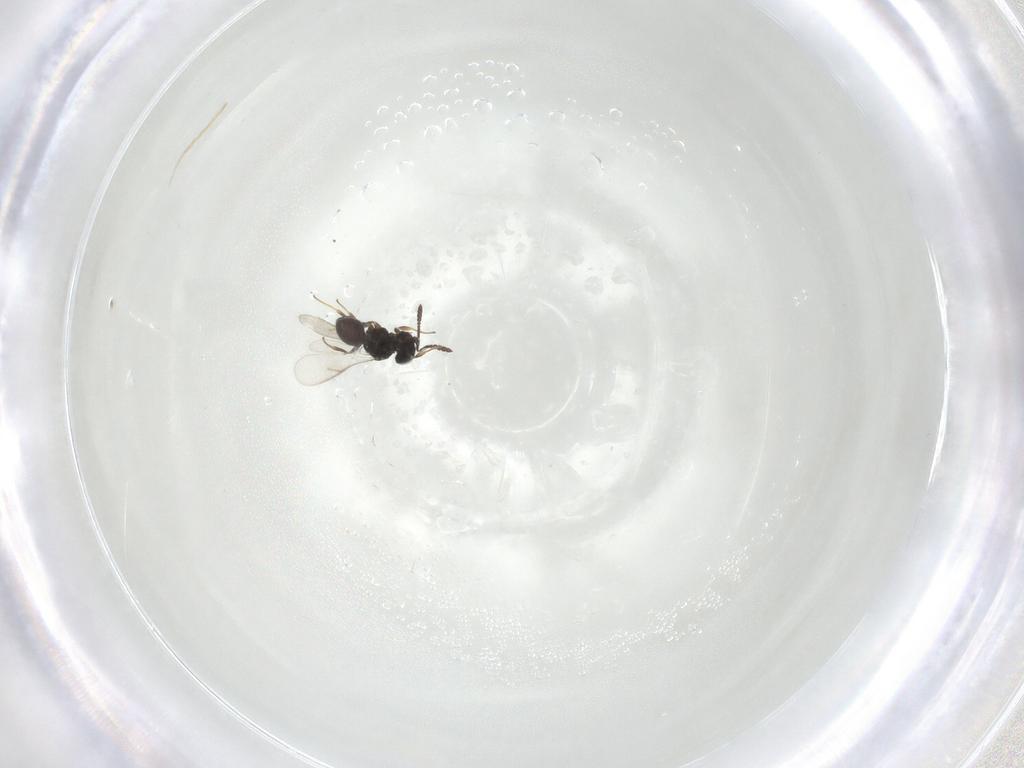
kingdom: Animalia
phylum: Arthropoda
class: Insecta
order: Hymenoptera
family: Scelionidae
